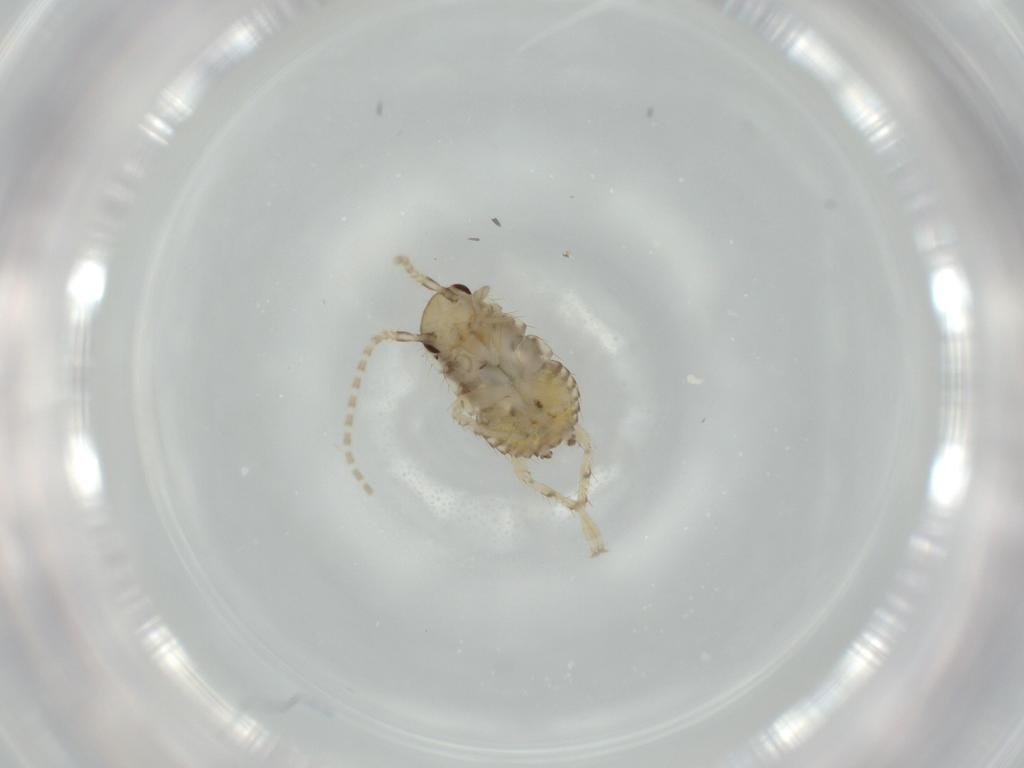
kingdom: Animalia
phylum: Arthropoda
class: Insecta
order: Blattodea
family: Ectobiidae
